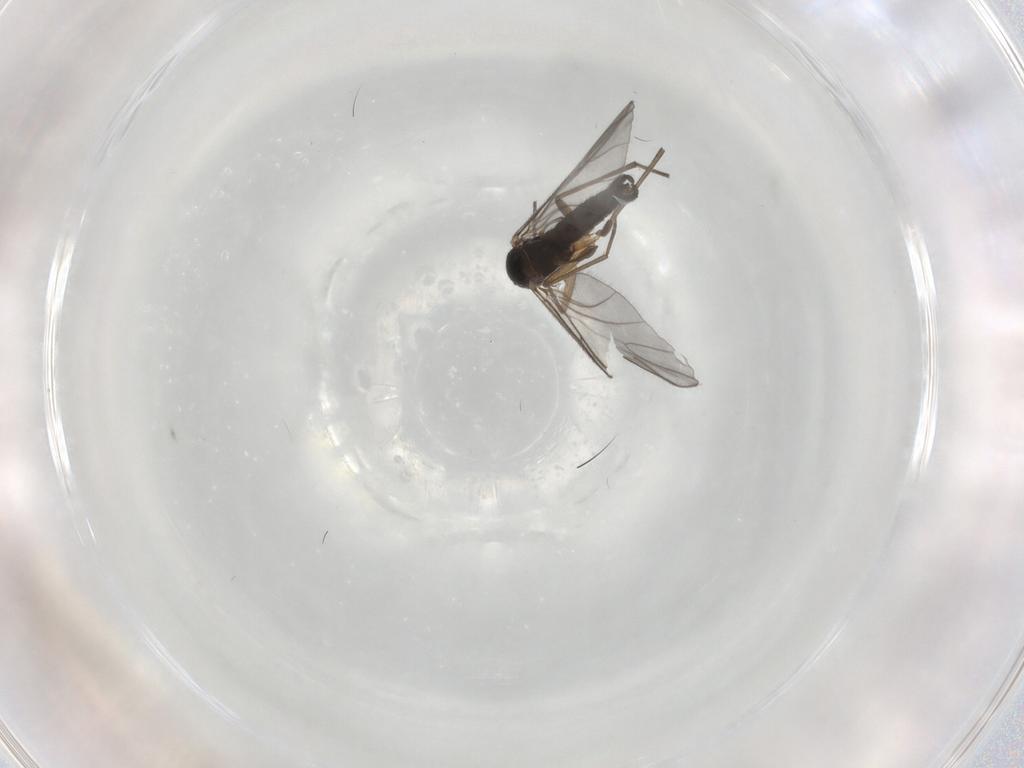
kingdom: Animalia
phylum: Arthropoda
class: Insecta
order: Diptera
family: Sciaridae
